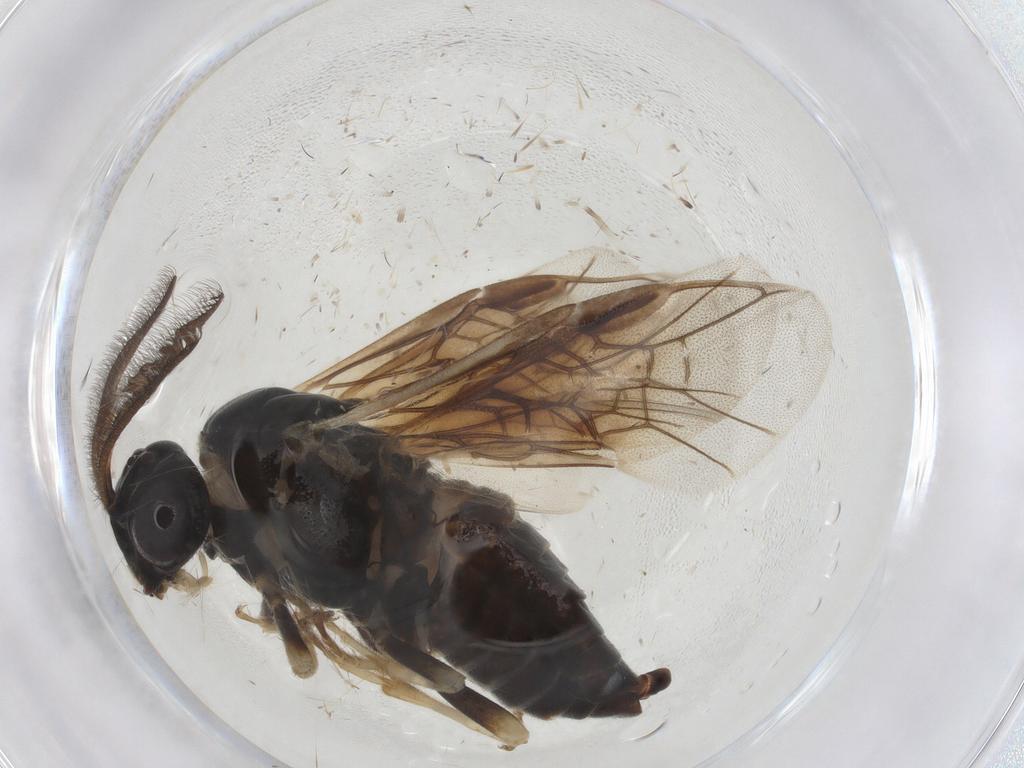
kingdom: Animalia
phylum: Arthropoda
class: Insecta
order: Hymenoptera
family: Argidae
